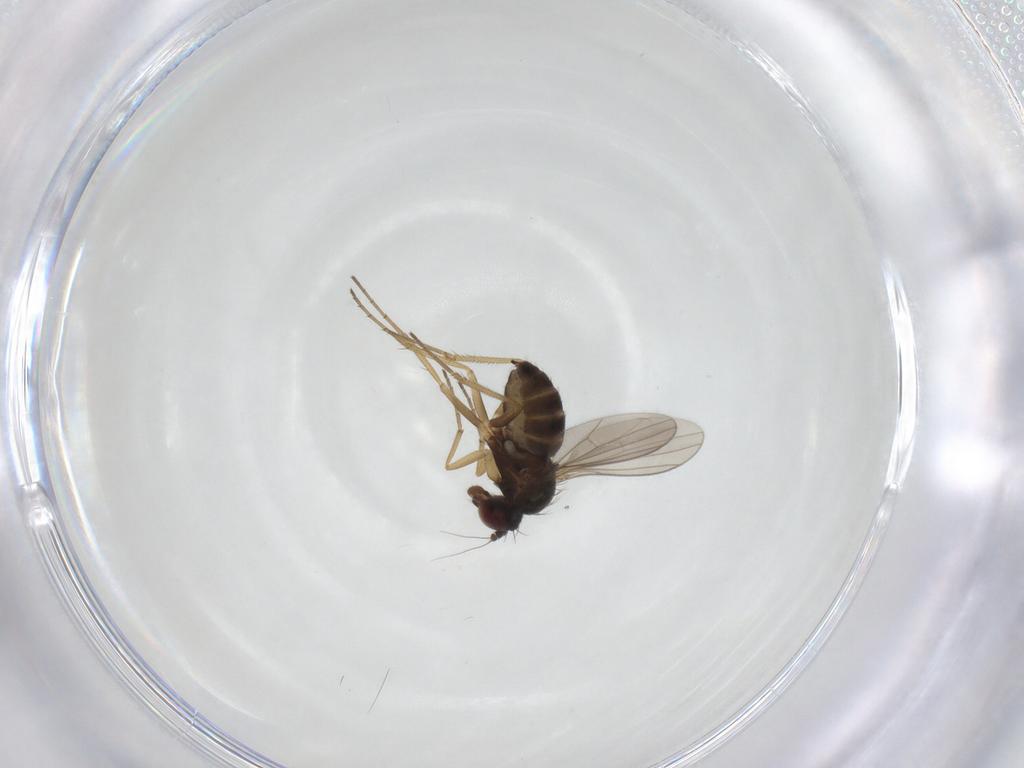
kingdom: Animalia
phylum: Arthropoda
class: Insecta
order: Diptera
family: Dolichopodidae
